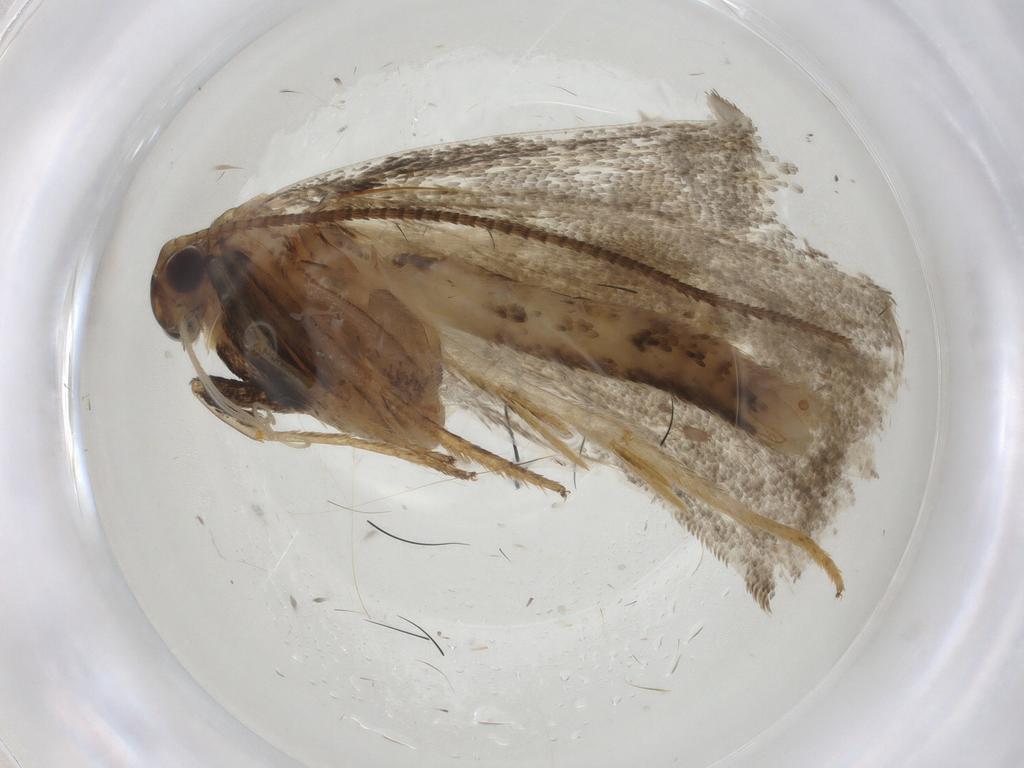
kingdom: Animalia
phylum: Arthropoda
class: Insecta
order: Lepidoptera
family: Depressariidae
